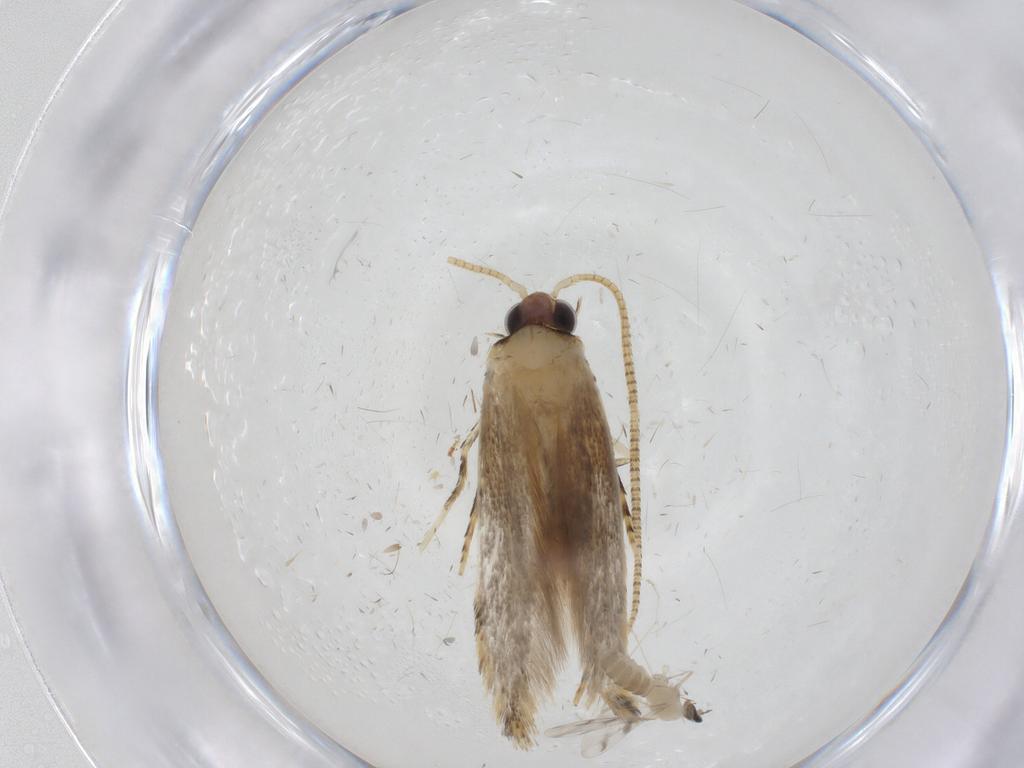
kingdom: Animalia
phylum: Arthropoda
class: Insecta
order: Lepidoptera
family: Tineidae
